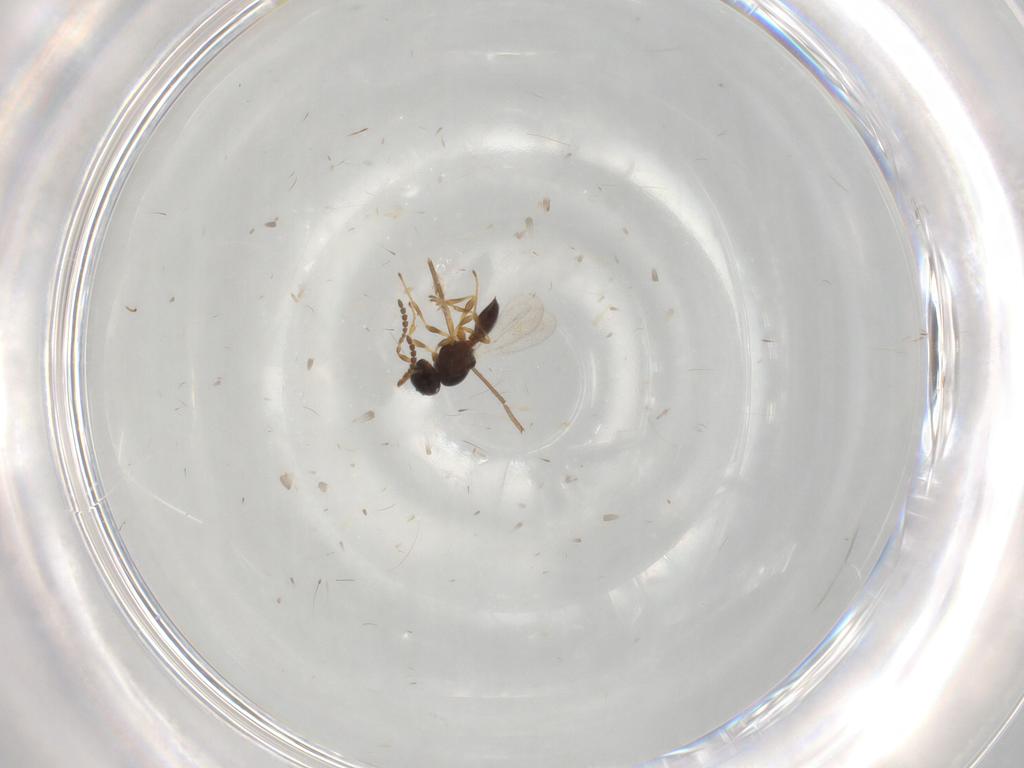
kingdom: Animalia
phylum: Arthropoda
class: Insecta
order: Hymenoptera
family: Platygastridae
